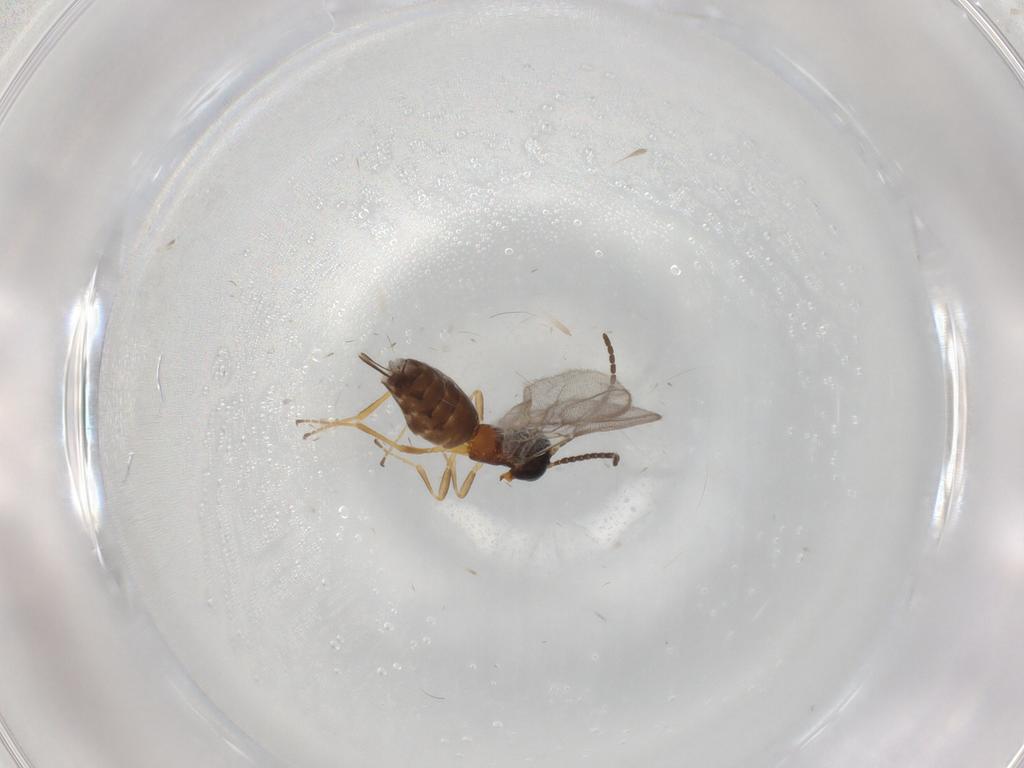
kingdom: Animalia
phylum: Arthropoda
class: Insecta
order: Hymenoptera
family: Braconidae
